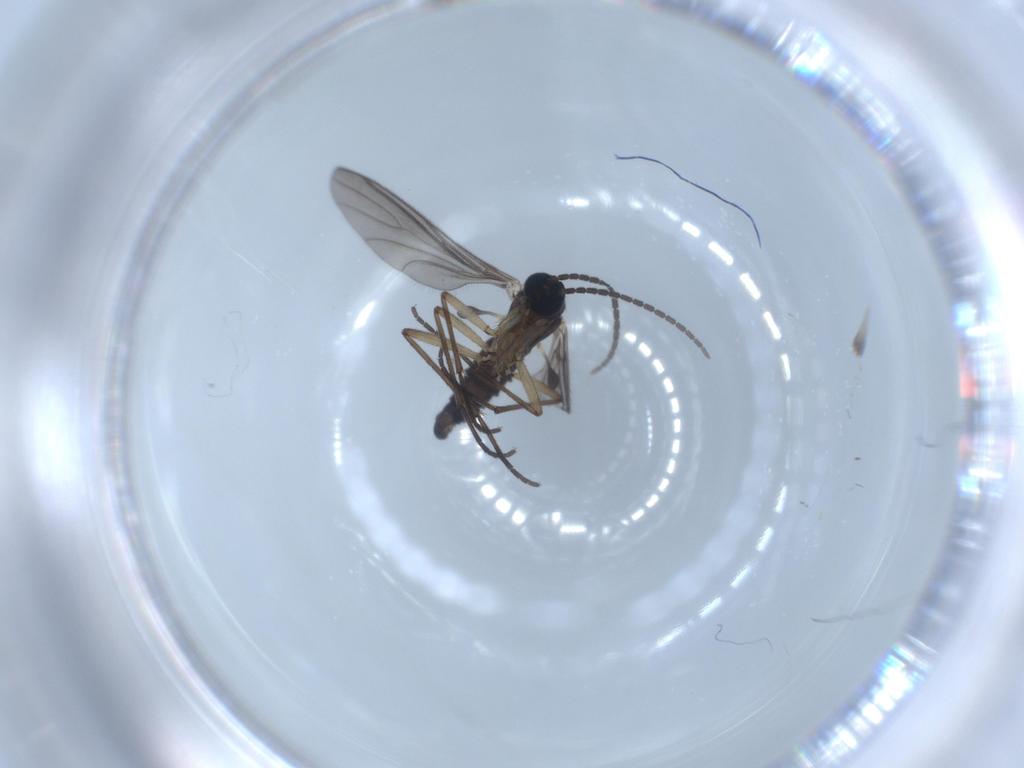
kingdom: Animalia
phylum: Arthropoda
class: Insecta
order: Diptera
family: Sciaridae
